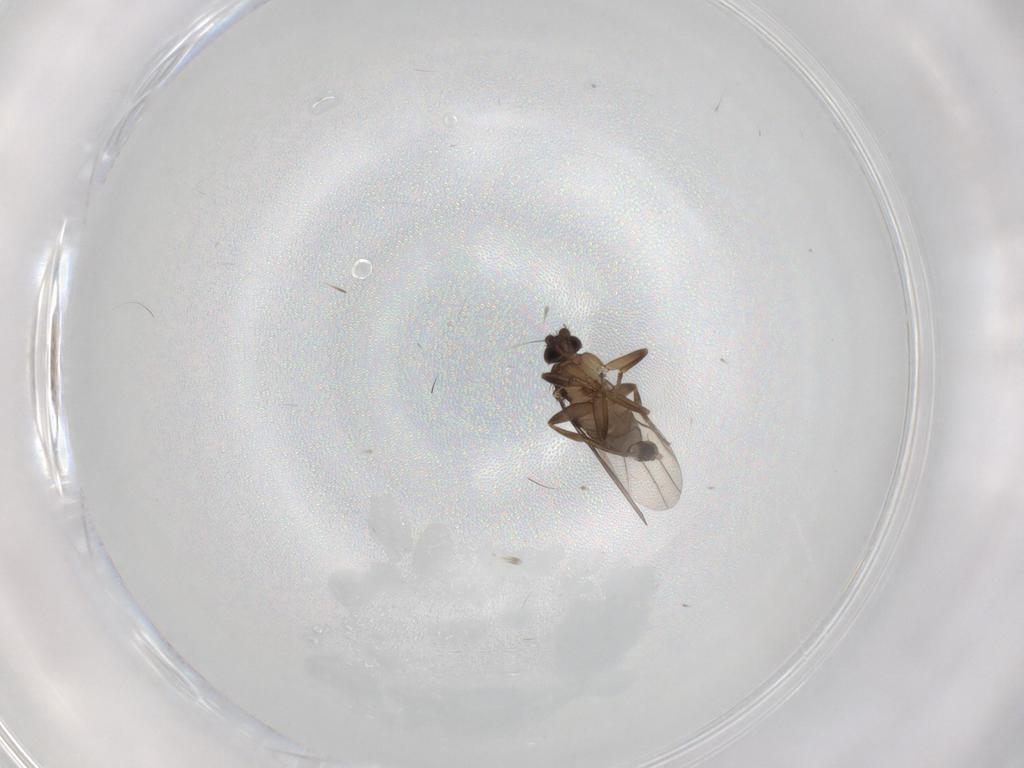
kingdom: Animalia
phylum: Arthropoda
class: Insecta
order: Diptera
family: Phoridae
